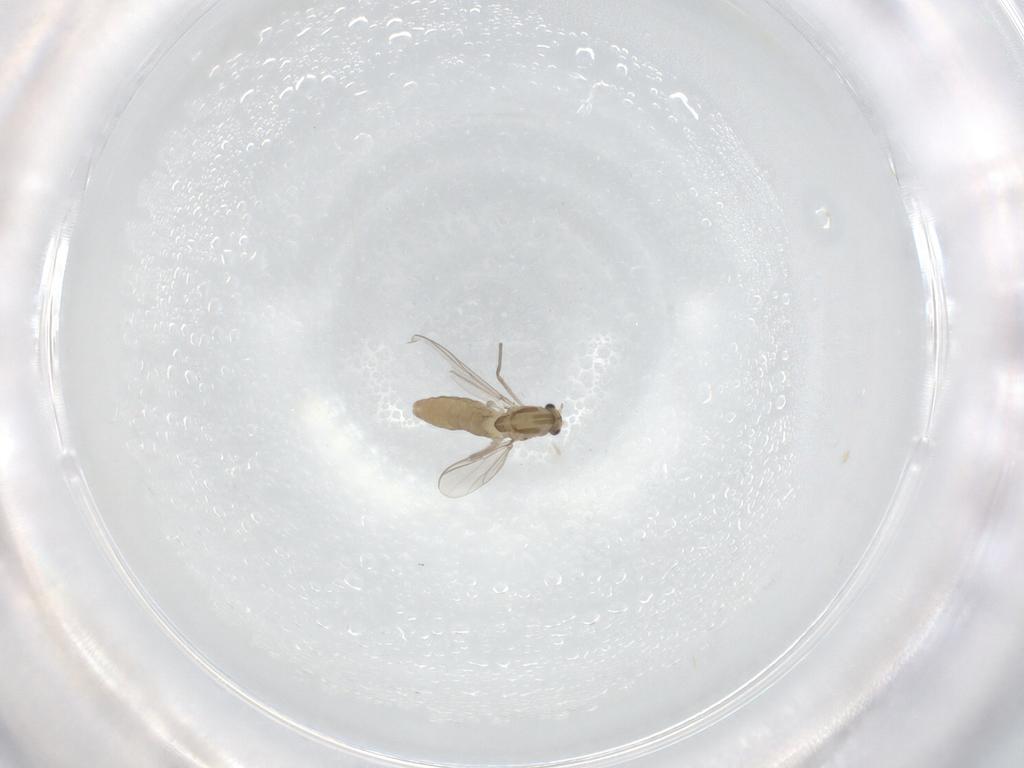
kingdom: Animalia
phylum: Arthropoda
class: Insecta
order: Diptera
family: Chironomidae
